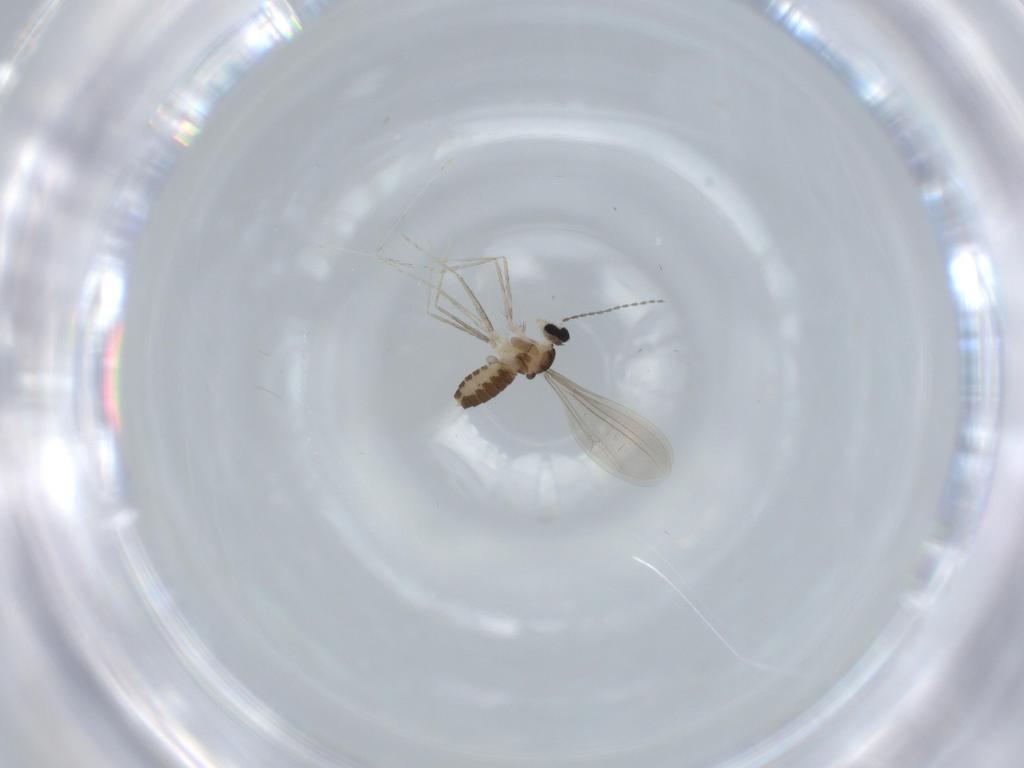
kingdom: Animalia
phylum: Arthropoda
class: Insecta
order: Diptera
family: Cecidomyiidae
